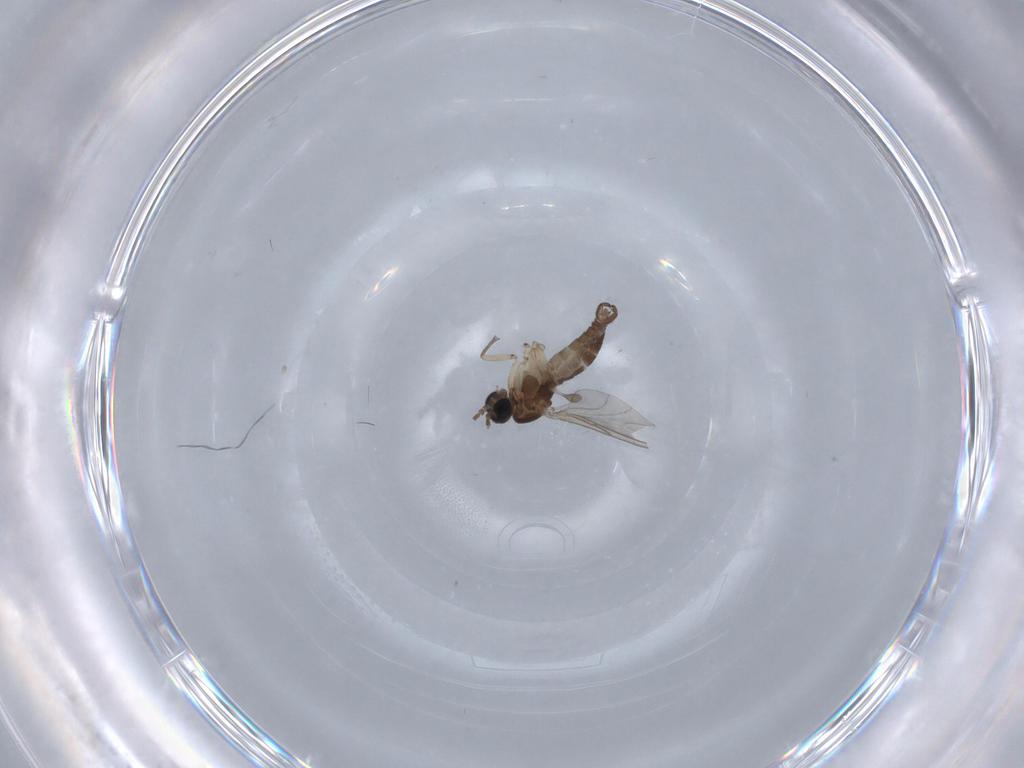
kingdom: Animalia
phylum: Arthropoda
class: Insecta
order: Diptera
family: Sciaridae
